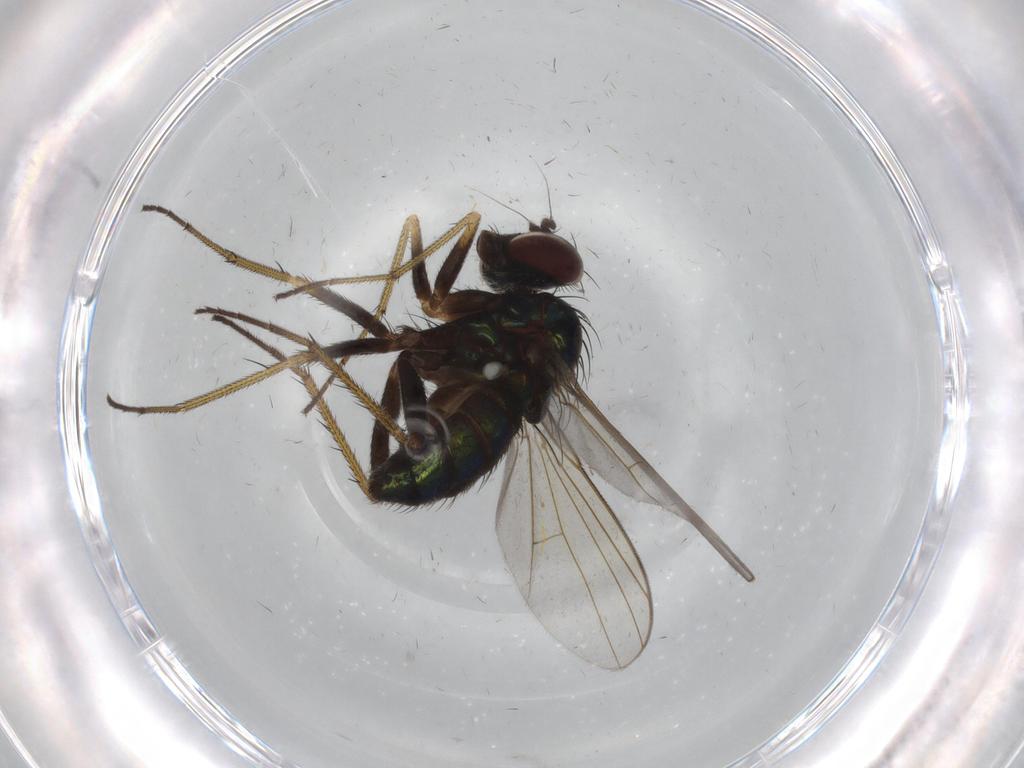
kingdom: Animalia
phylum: Arthropoda
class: Insecta
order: Diptera
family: Dolichopodidae
